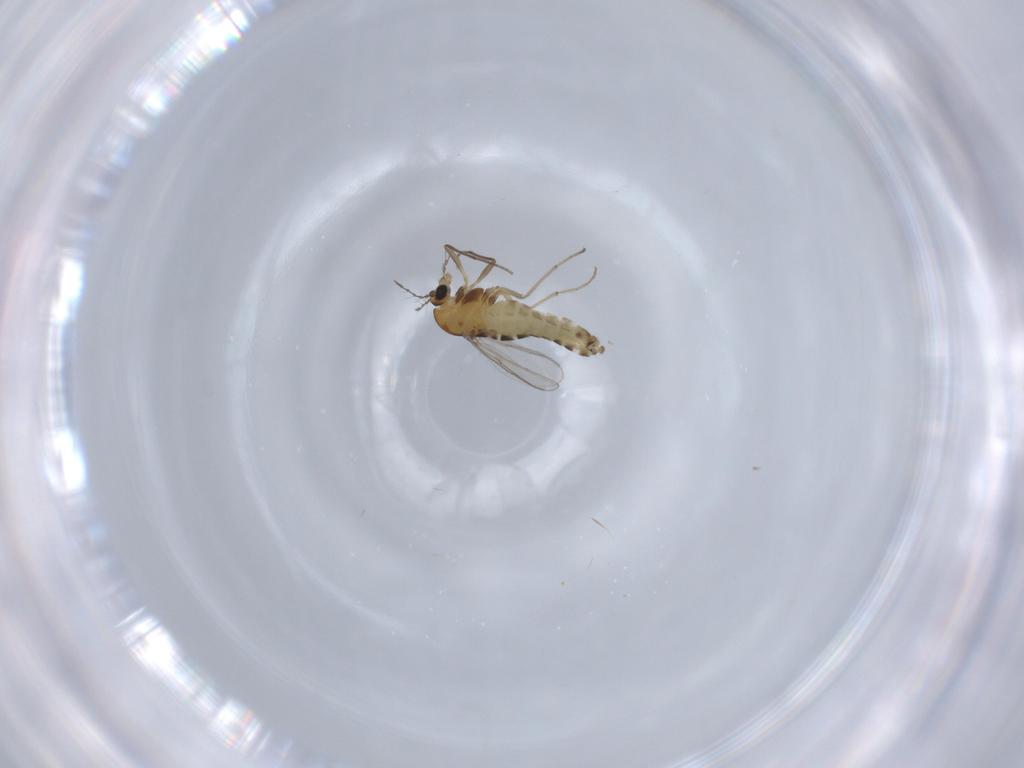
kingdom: Animalia
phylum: Arthropoda
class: Insecta
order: Diptera
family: Chironomidae
